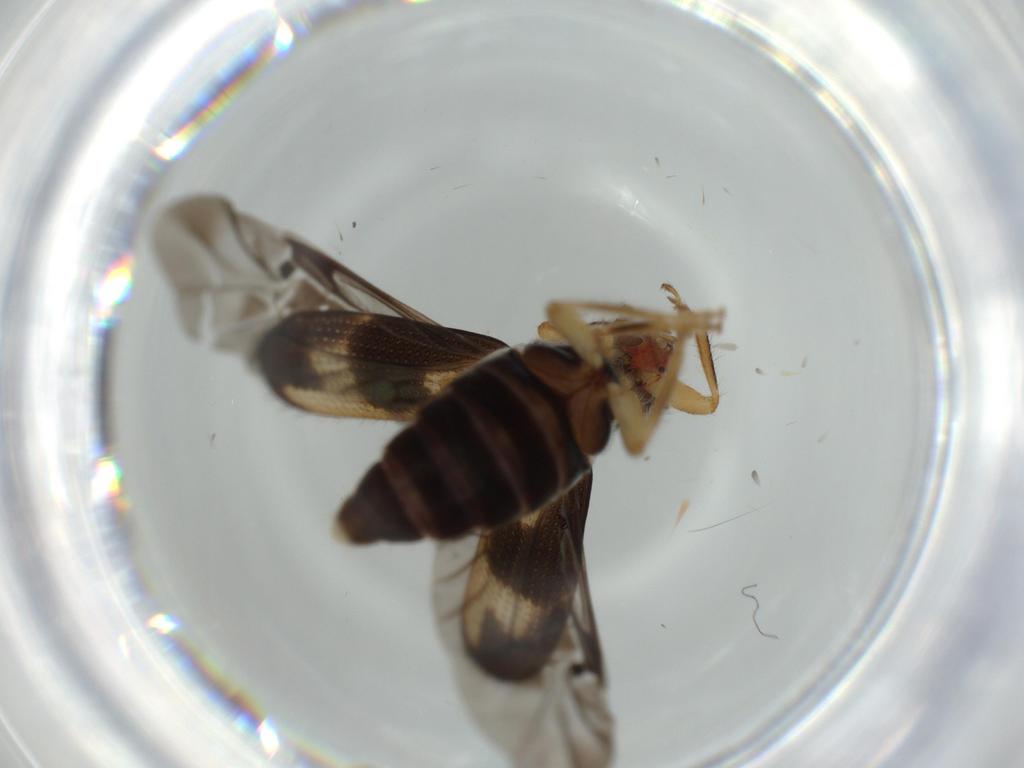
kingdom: Animalia
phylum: Arthropoda
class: Insecta
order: Coleoptera
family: Cleridae
